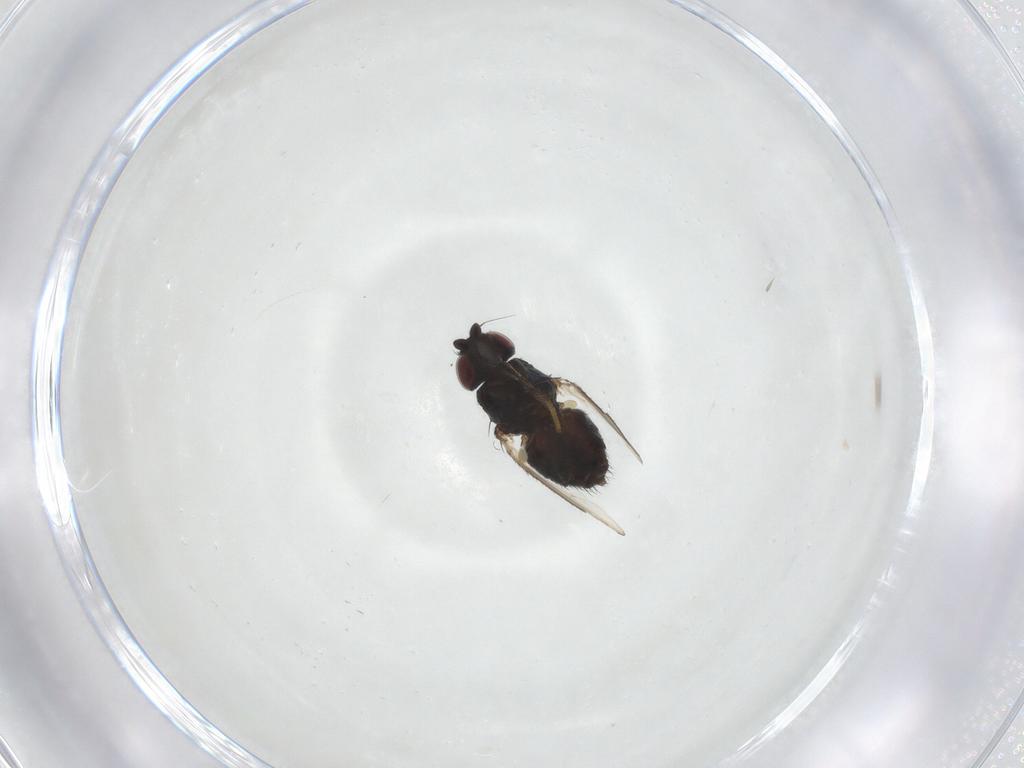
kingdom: Animalia
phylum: Arthropoda
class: Insecta
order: Diptera
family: Milichiidae
